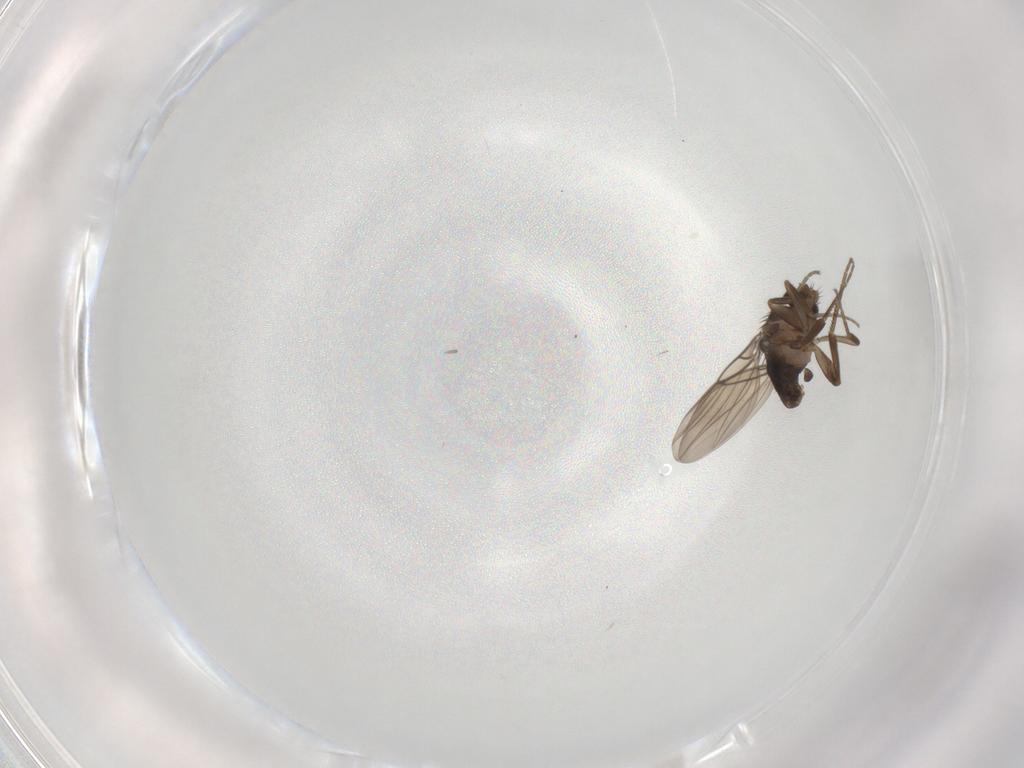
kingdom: Animalia
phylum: Arthropoda
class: Insecta
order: Diptera
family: Phoridae
